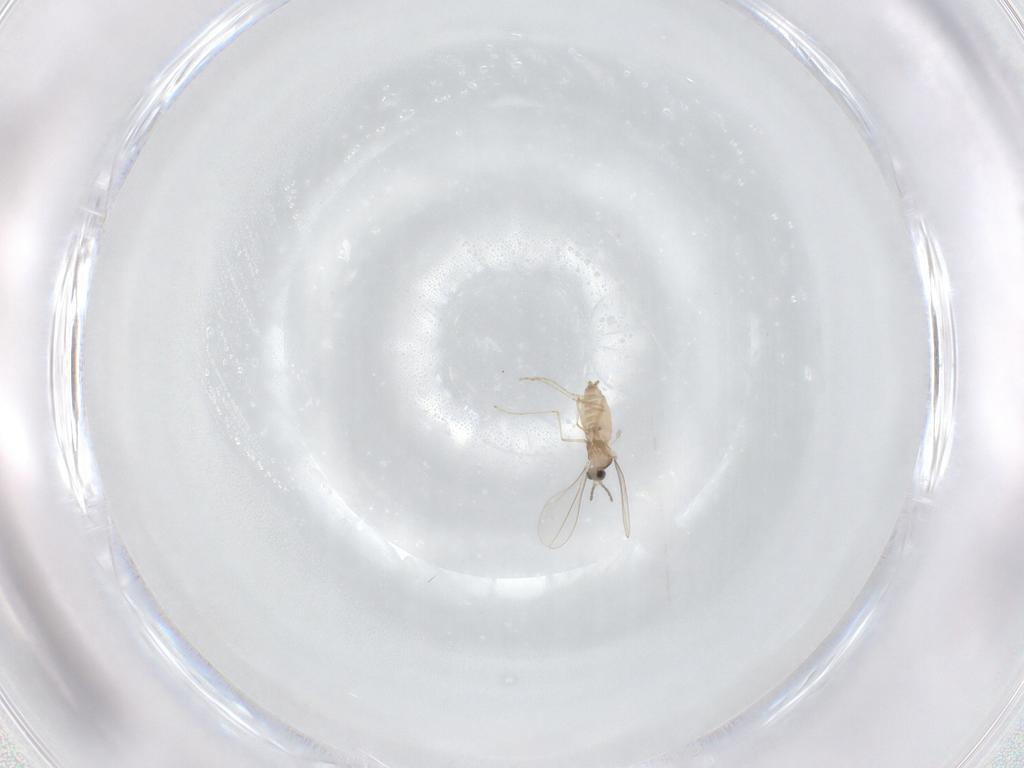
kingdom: Animalia
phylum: Arthropoda
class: Insecta
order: Diptera
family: Cecidomyiidae
